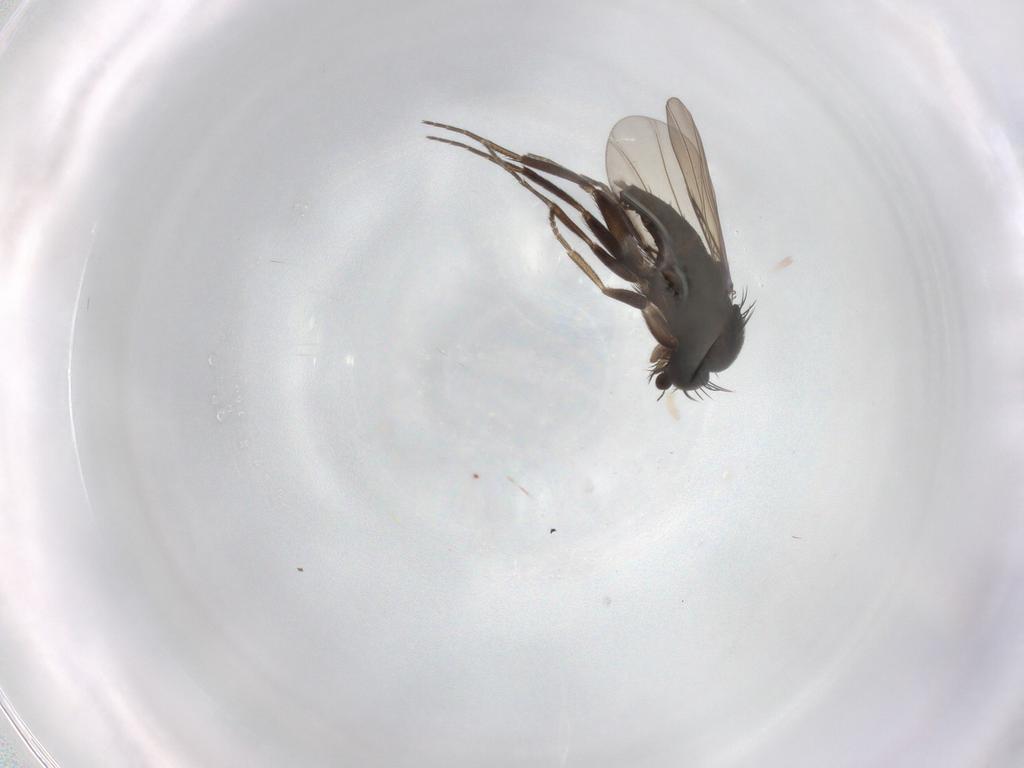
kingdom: Animalia
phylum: Arthropoda
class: Insecta
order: Diptera
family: Phoridae
